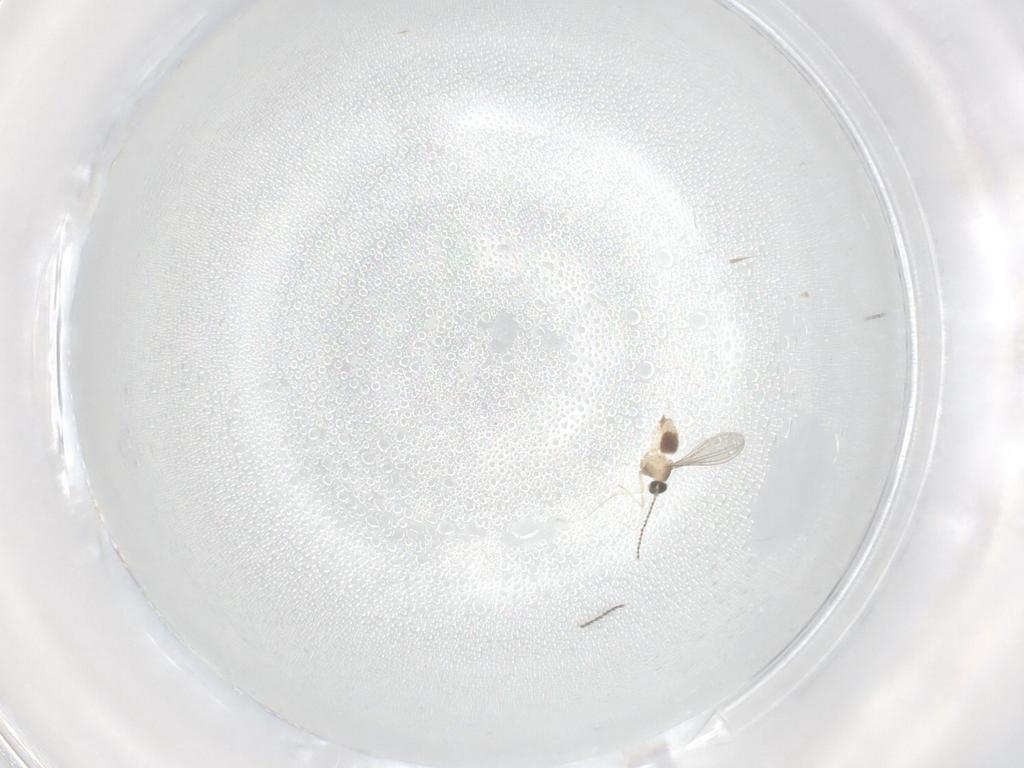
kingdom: Animalia
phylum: Arthropoda
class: Insecta
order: Diptera
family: Cecidomyiidae
